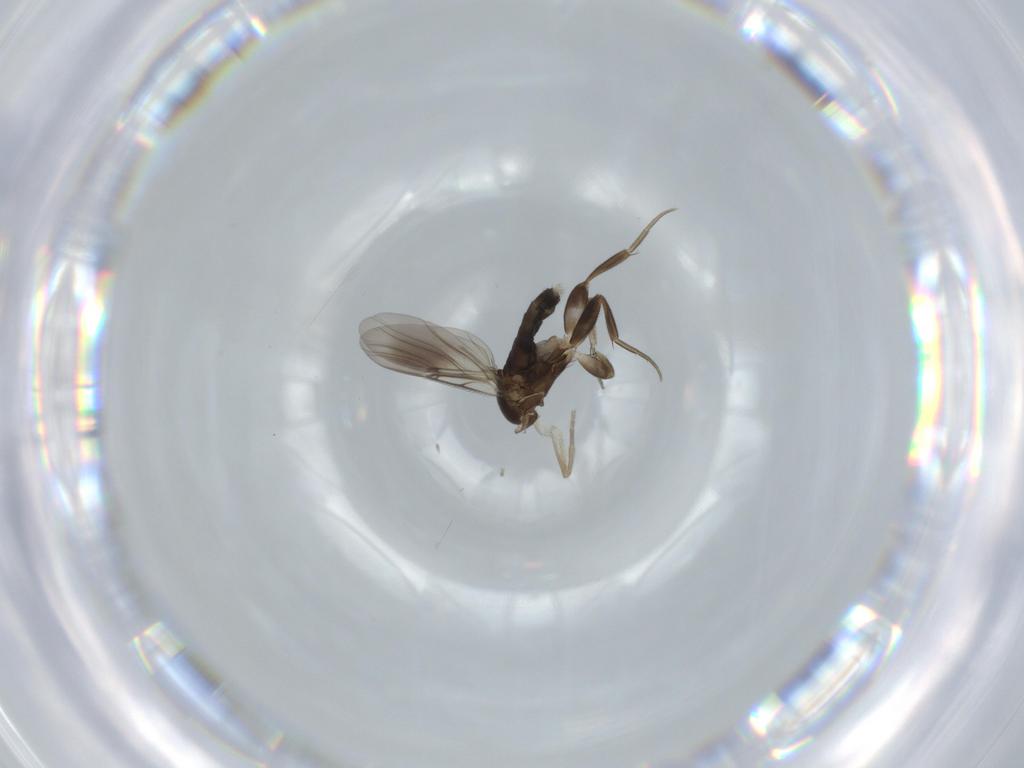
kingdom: Animalia
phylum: Arthropoda
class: Insecta
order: Diptera
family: Phoridae
